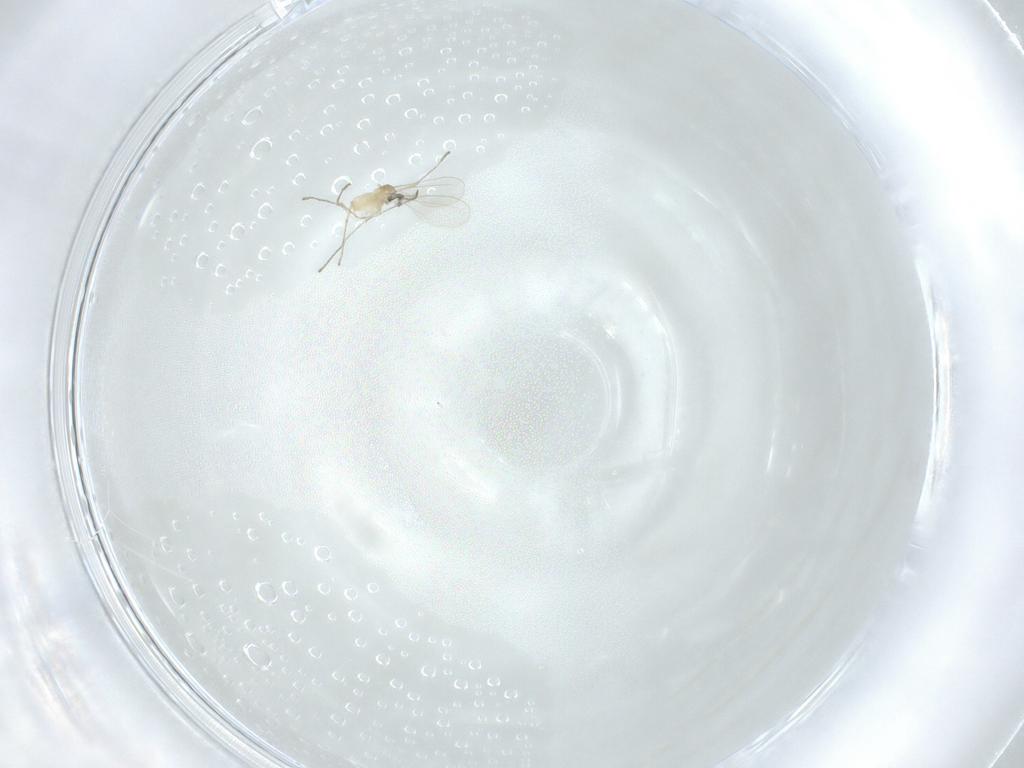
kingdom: Animalia
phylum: Arthropoda
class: Insecta
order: Diptera
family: Cecidomyiidae
